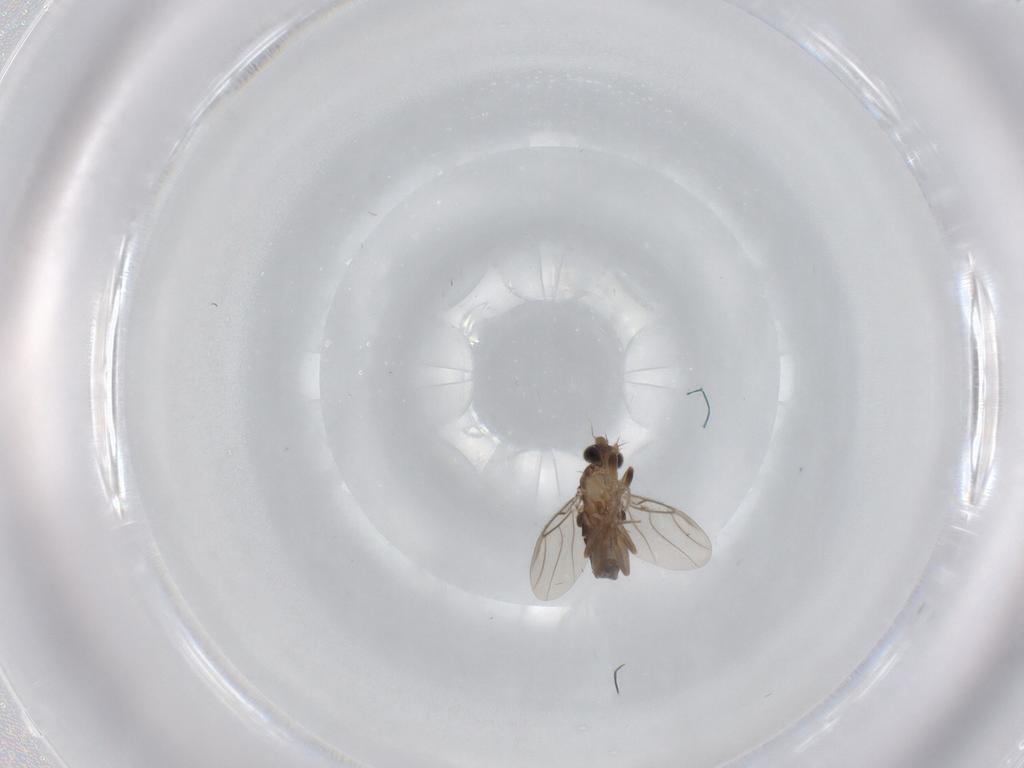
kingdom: Animalia
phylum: Arthropoda
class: Insecta
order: Diptera
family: Phoridae
